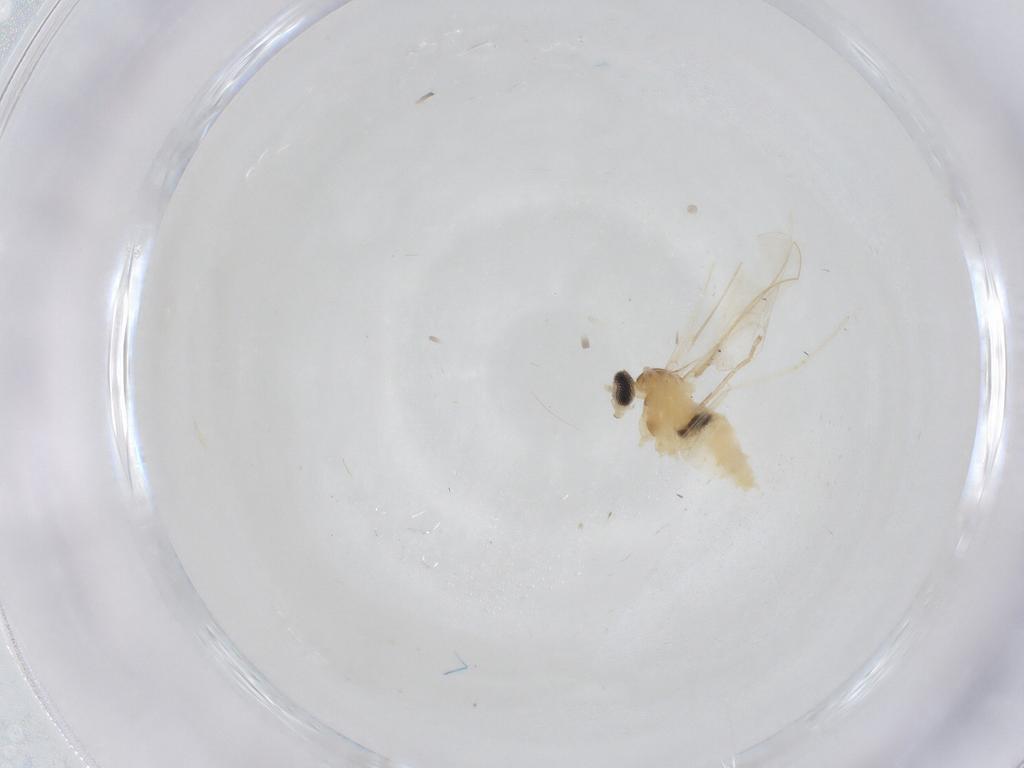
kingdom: Animalia
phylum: Arthropoda
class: Insecta
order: Diptera
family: Cecidomyiidae
